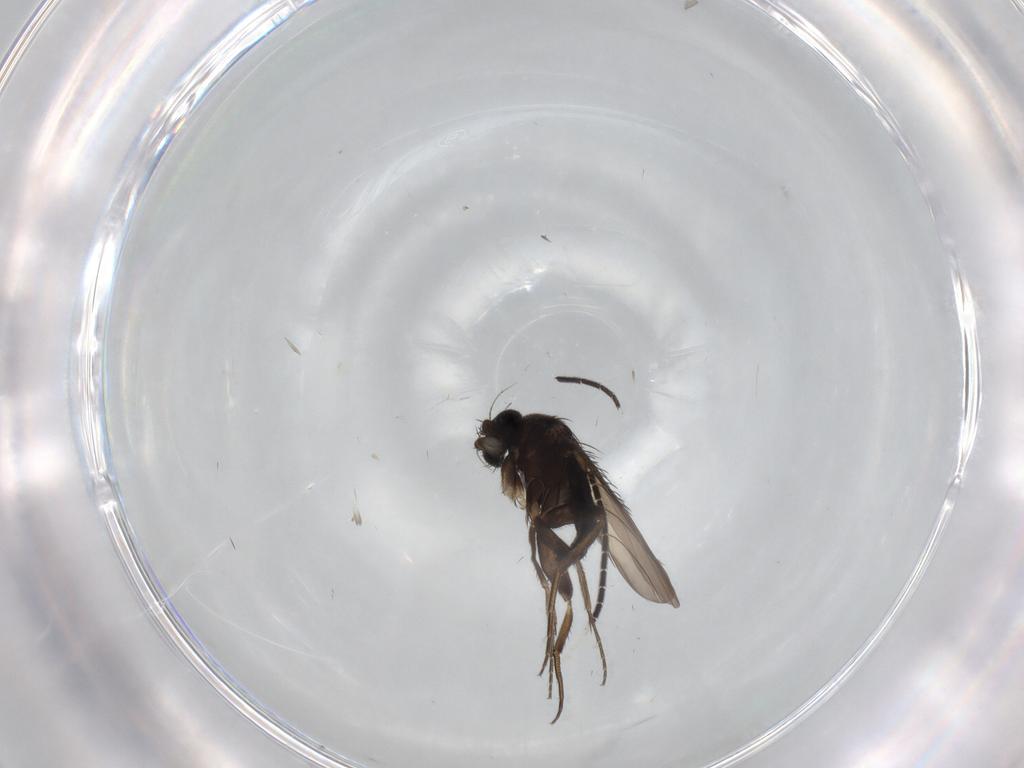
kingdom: Animalia
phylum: Arthropoda
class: Insecta
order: Diptera
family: Phoridae
